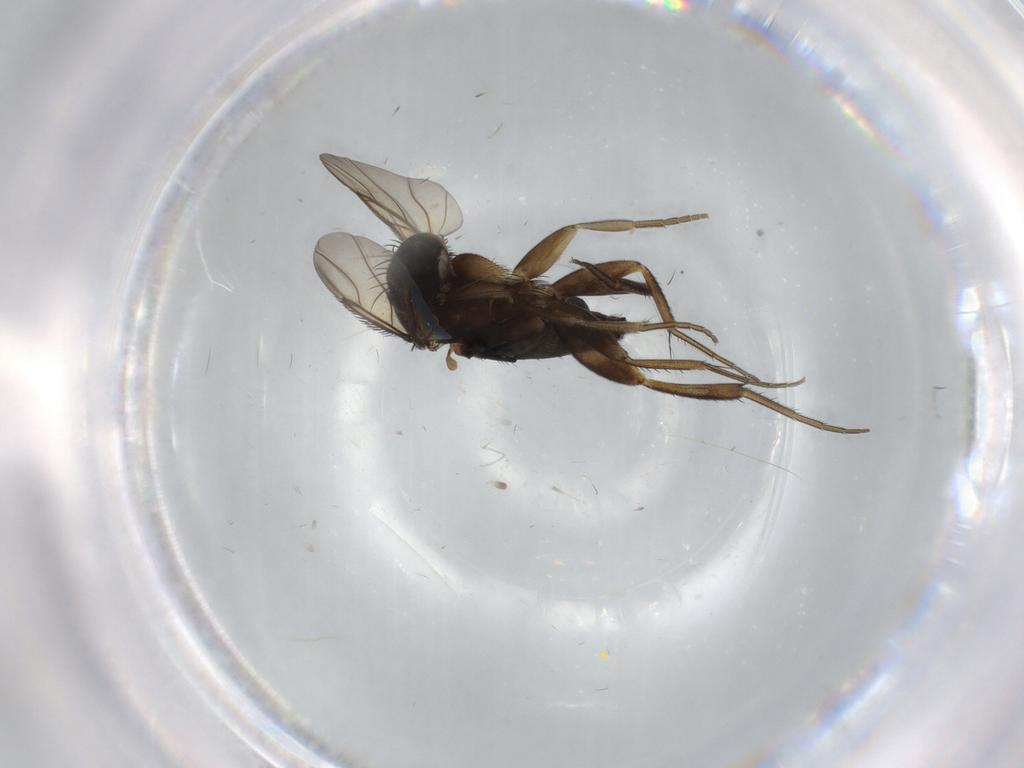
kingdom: Animalia
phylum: Arthropoda
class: Insecta
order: Diptera
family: Phoridae
